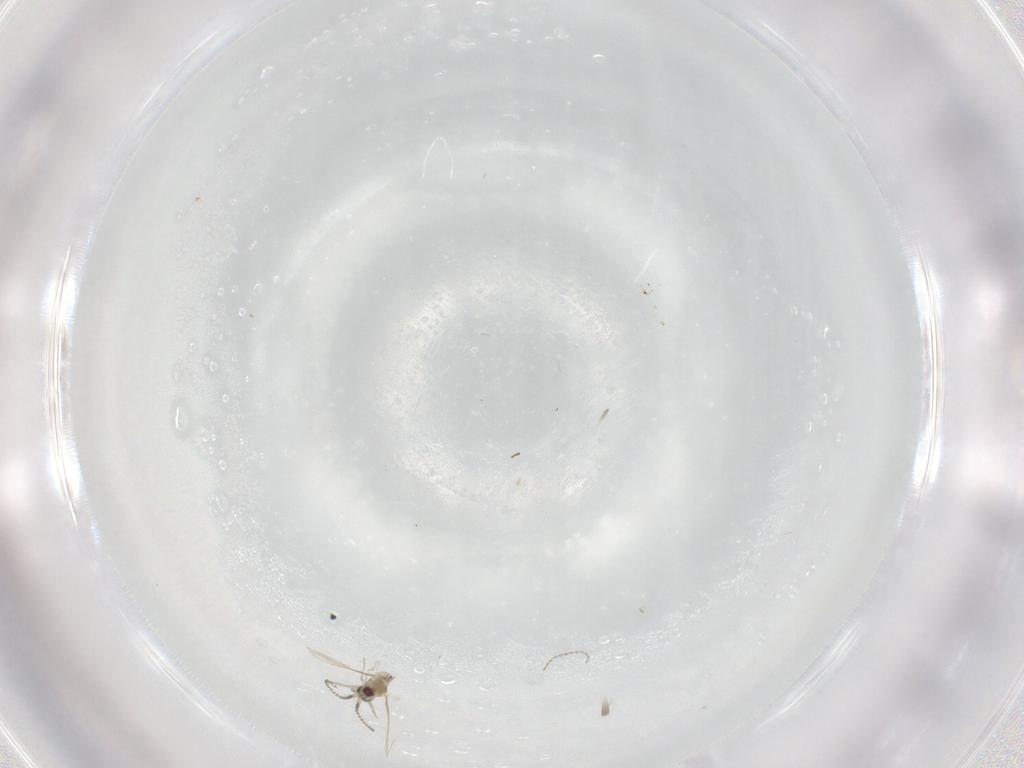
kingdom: Animalia
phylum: Arthropoda
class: Insecta
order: Diptera
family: Cecidomyiidae
